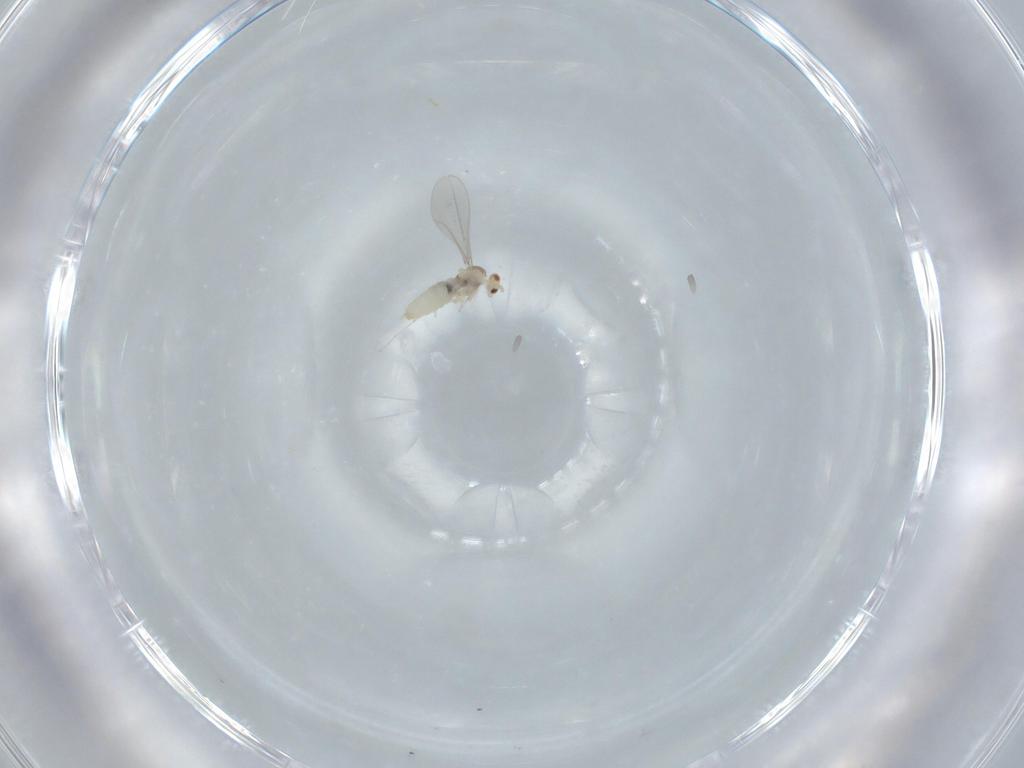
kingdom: Animalia
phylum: Arthropoda
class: Insecta
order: Diptera
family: Cecidomyiidae
